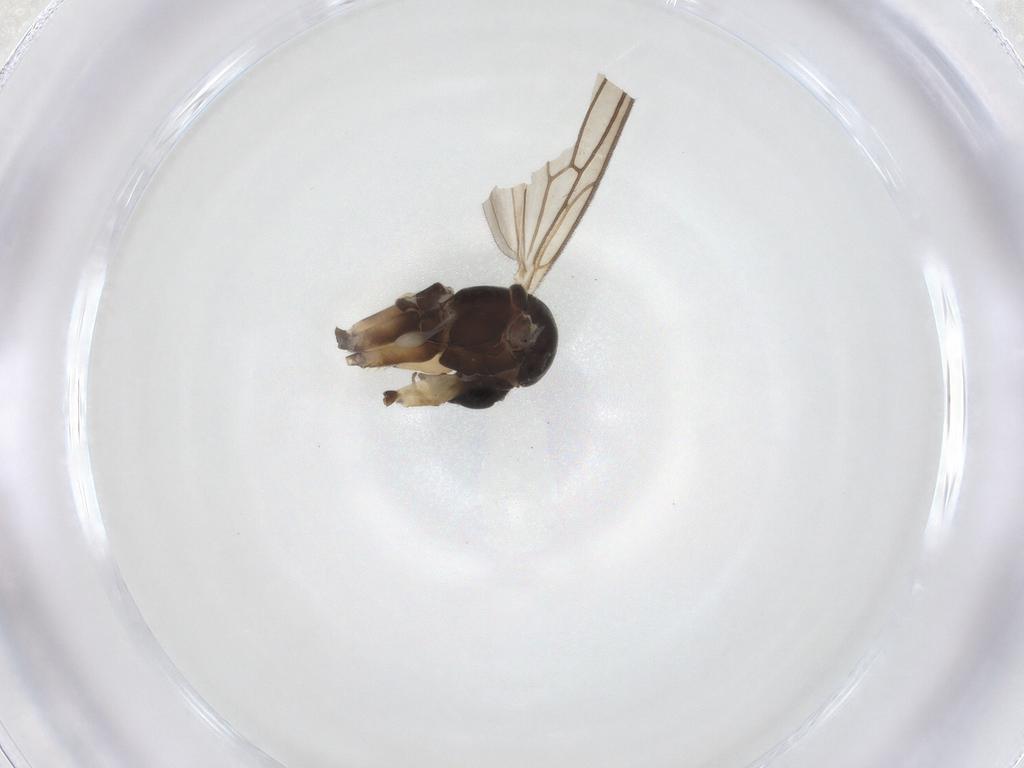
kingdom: Animalia
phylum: Arthropoda
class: Insecta
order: Diptera
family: Mycetophilidae
